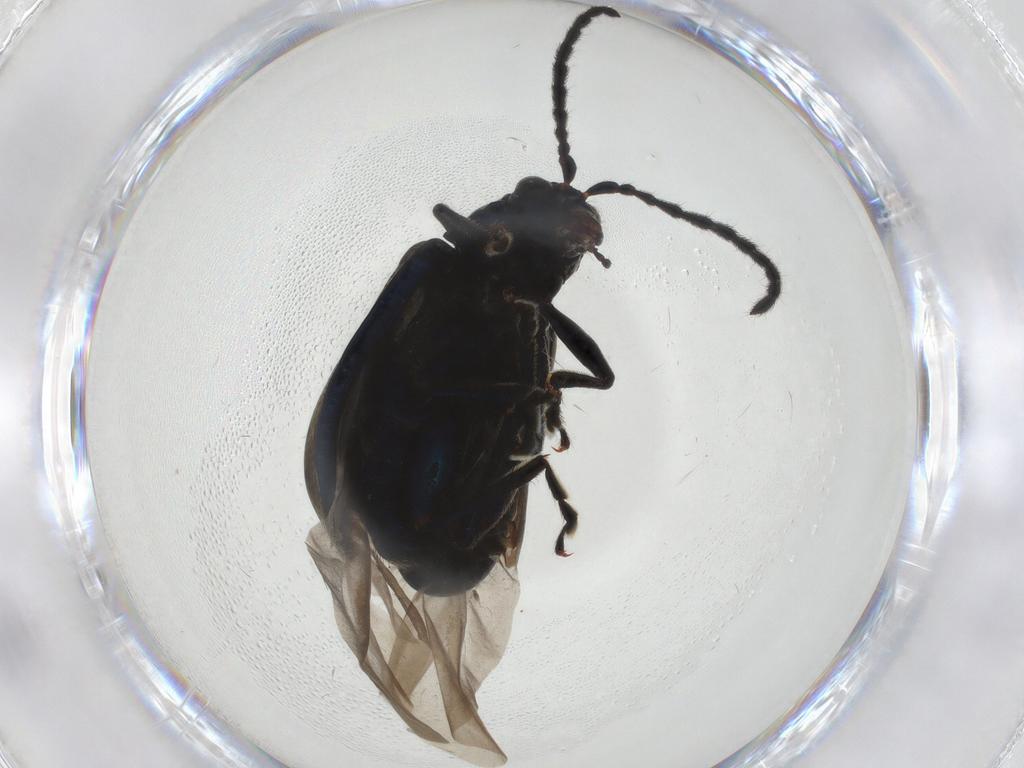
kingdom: Animalia
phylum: Arthropoda
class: Insecta
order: Coleoptera
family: Chrysomelidae
